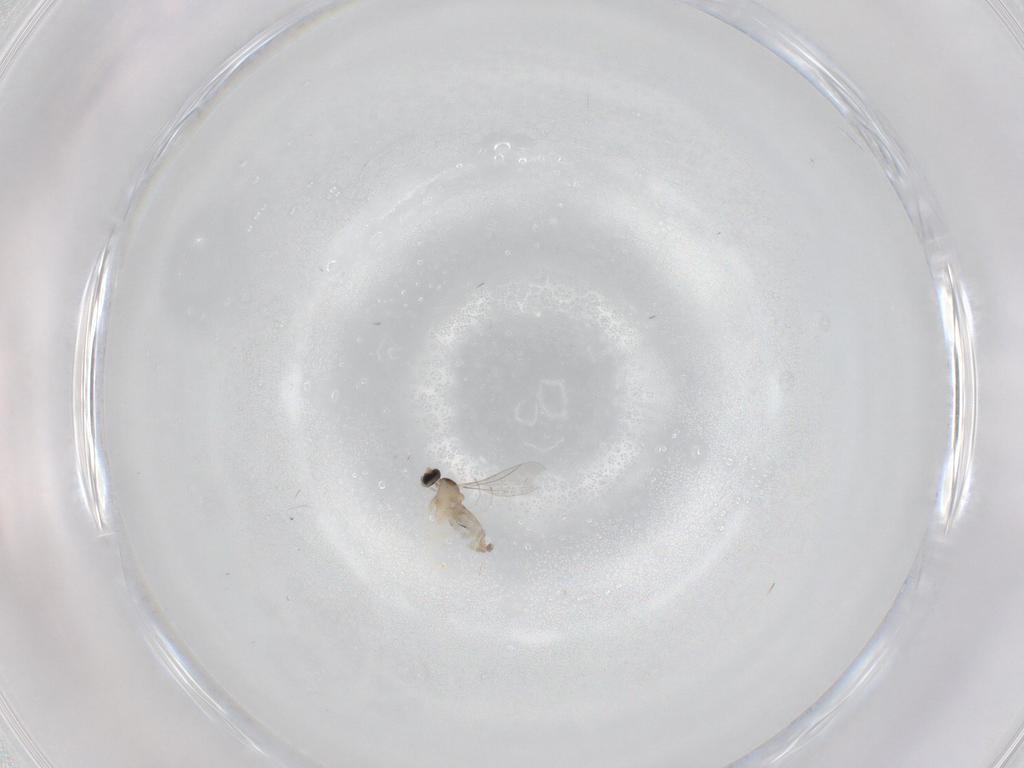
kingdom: Animalia
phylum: Arthropoda
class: Insecta
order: Diptera
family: Cecidomyiidae
